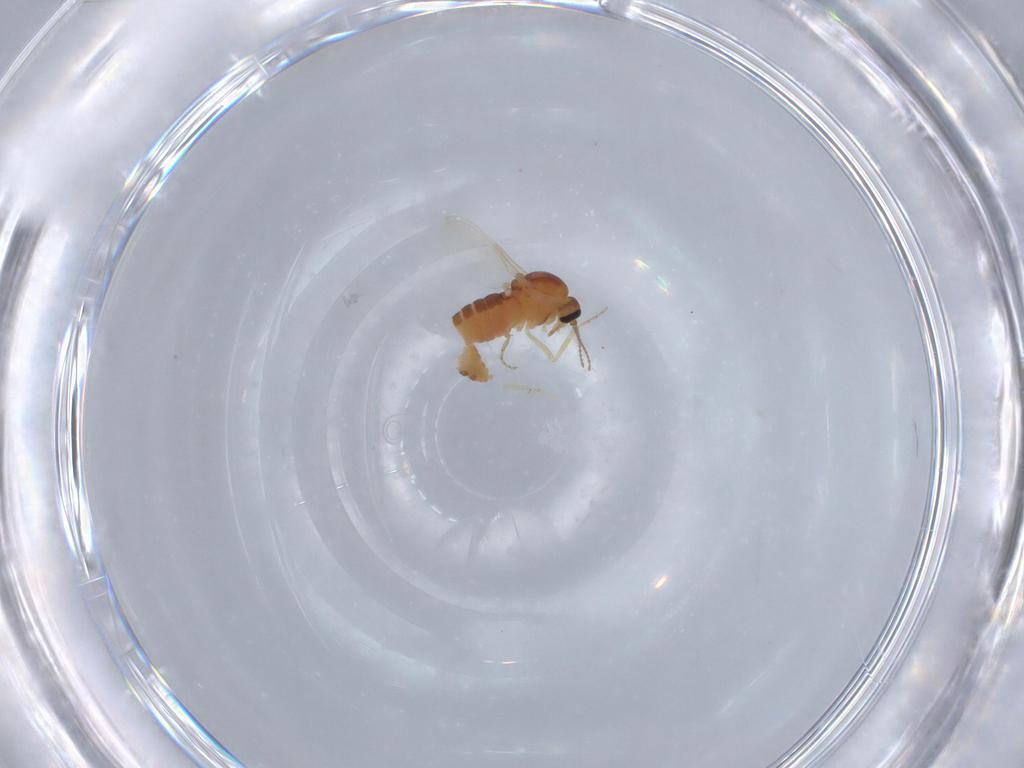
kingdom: Animalia
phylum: Arthropoda
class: Insecta
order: Diptera
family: Ceratopogonidae
